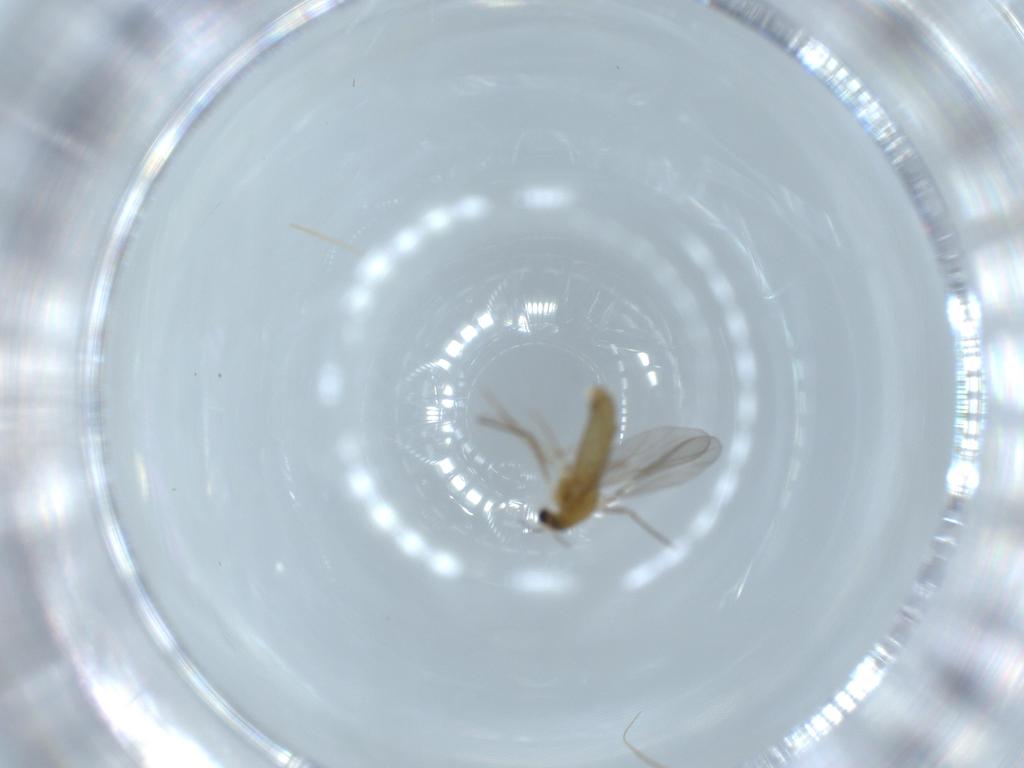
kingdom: Animalia
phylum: Arthropoda
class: Insecta
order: Diptera
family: Chironomidae
